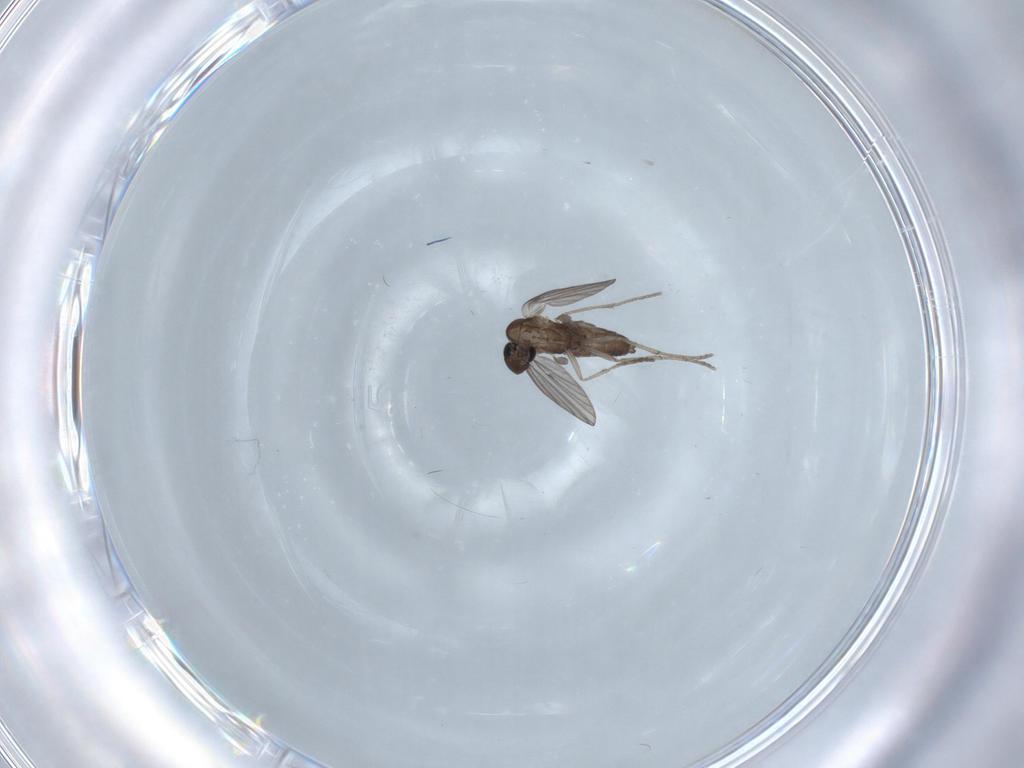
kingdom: Animalia
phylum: Arthropoda
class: Insecta
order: Diptera
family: Cecidomyiidae
